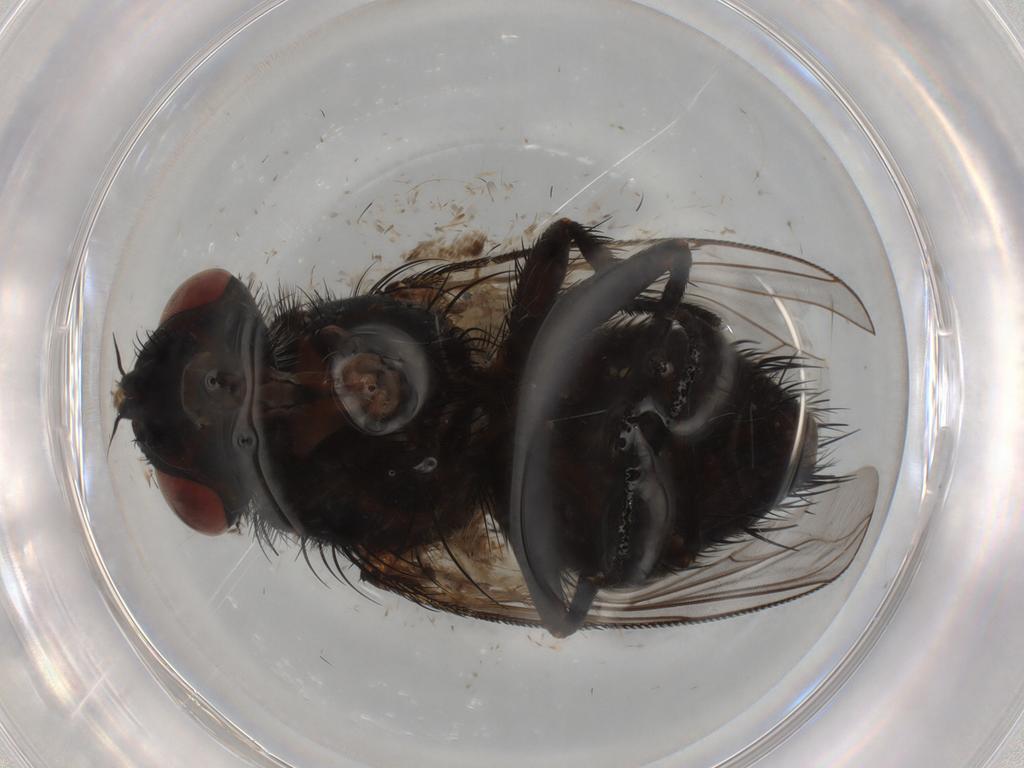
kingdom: Animalia
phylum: Arthropoda
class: Insecta
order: Diptera
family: Tachinidae
